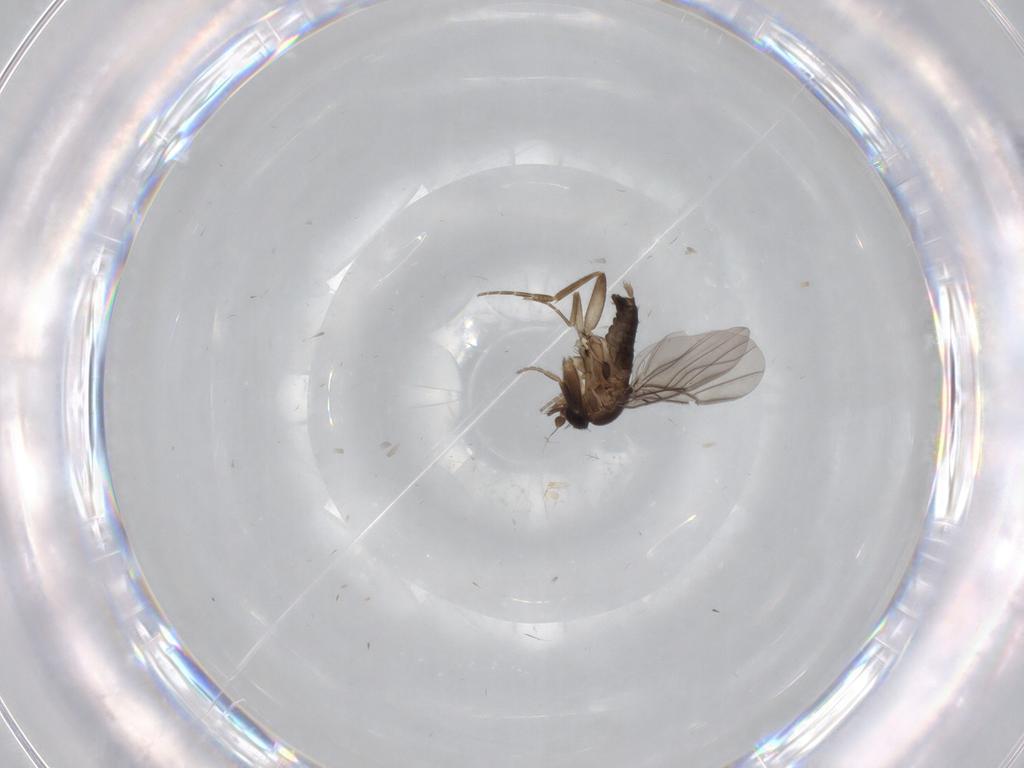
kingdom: Animalia
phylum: Arthropoda
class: Insecta
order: Diptera
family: Phoridae
